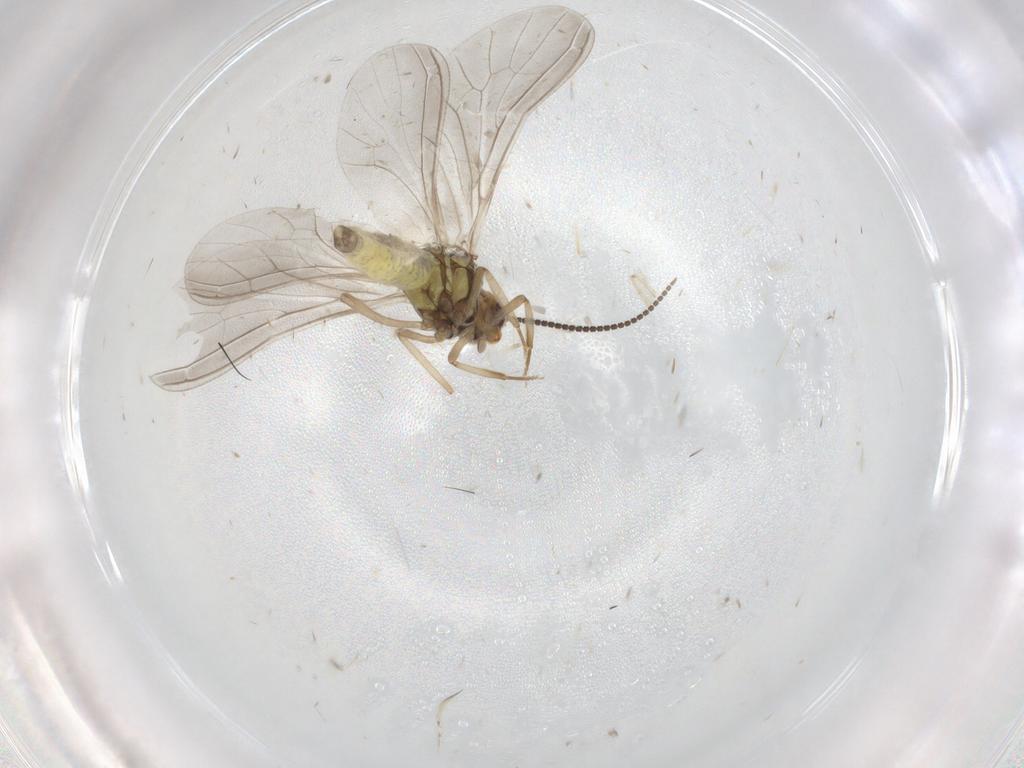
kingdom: Animalia
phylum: Arthropoda
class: Insecta
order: Neuroptera
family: Coniopterygidae
